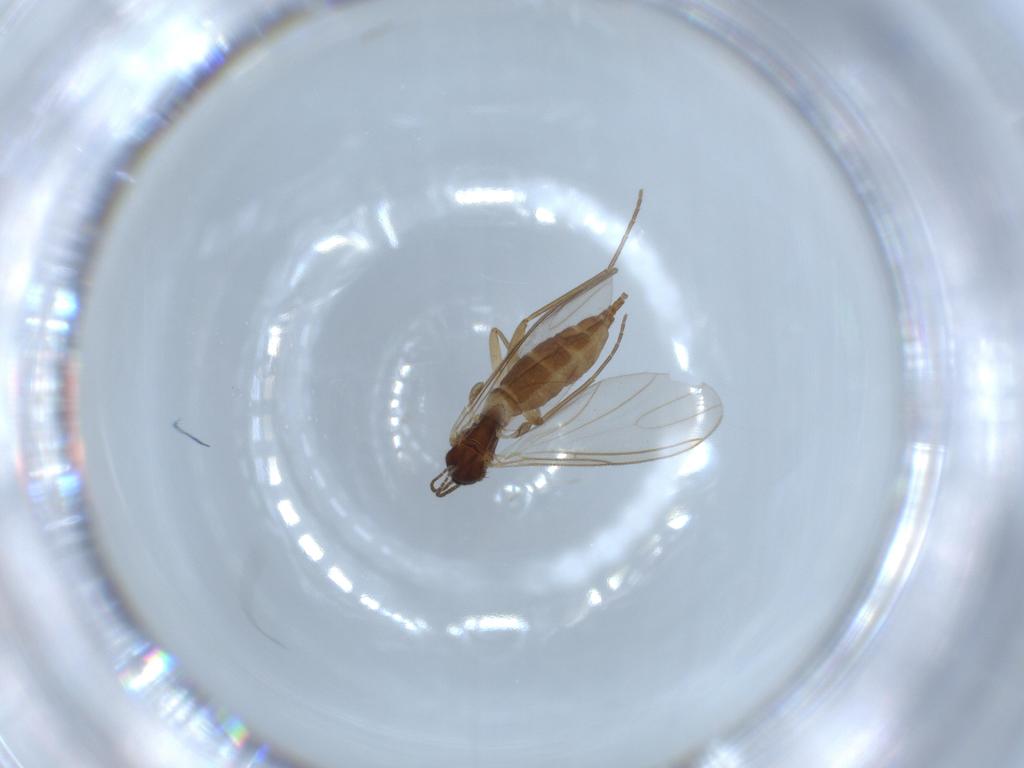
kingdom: Animalia
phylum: Arthropoda
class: Insecta
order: Diptera
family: Sciaridae
